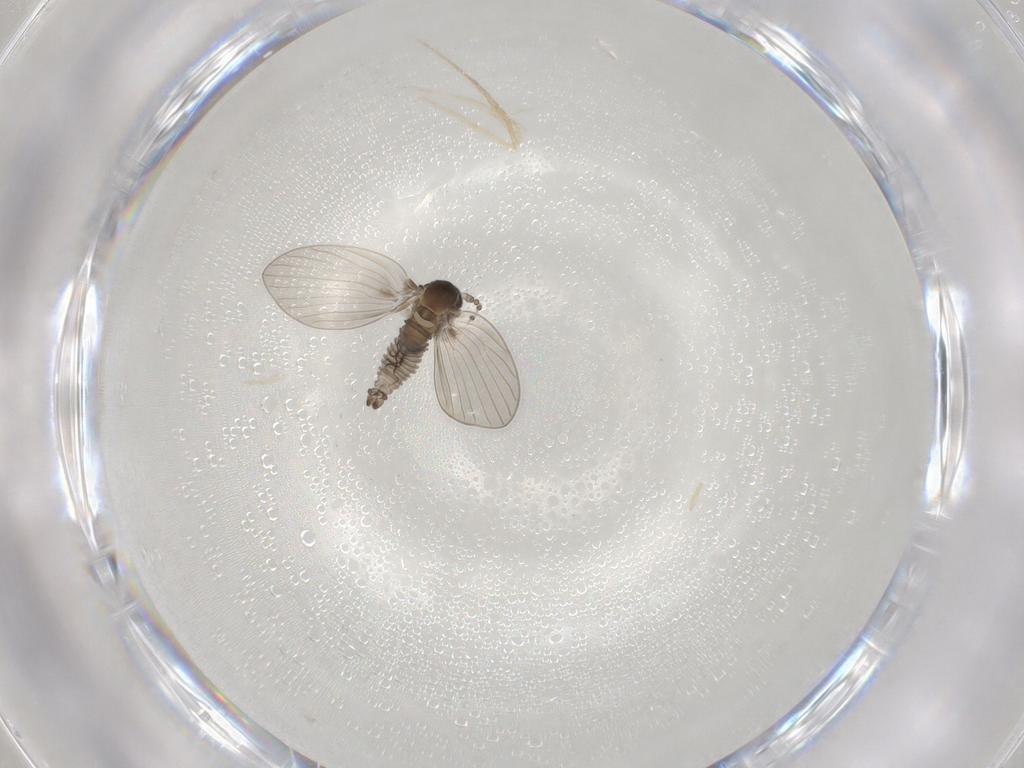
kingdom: Animalia
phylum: Arthropoda
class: Insecta
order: Diptera
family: Psychodidae
